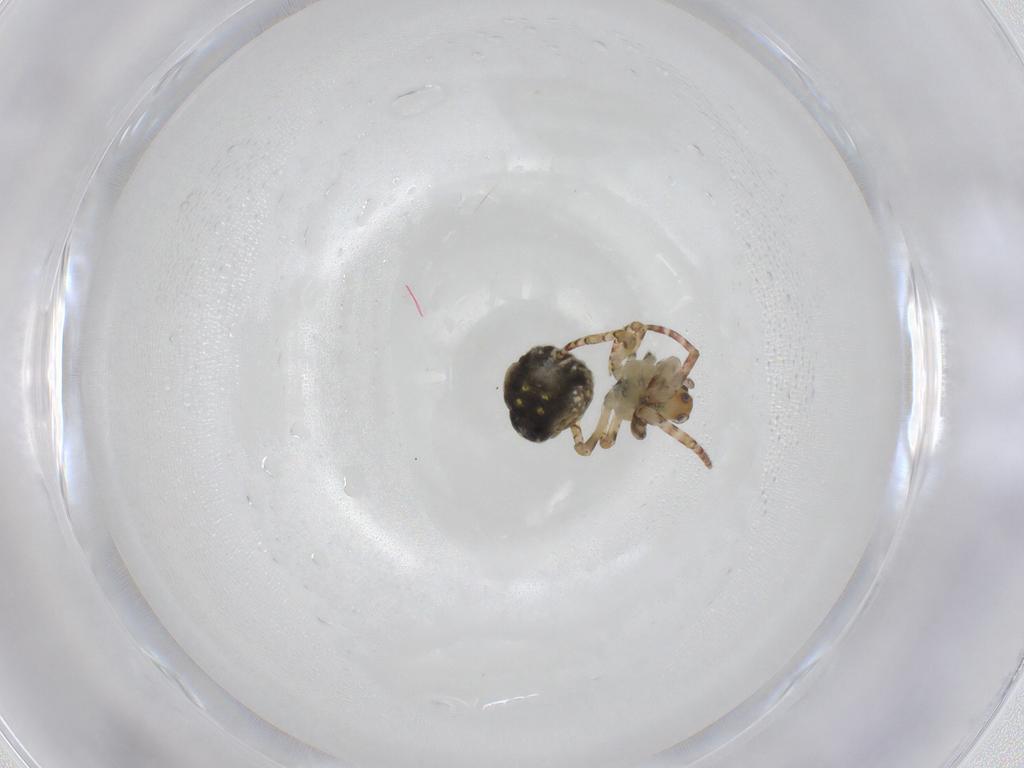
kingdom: Animalia
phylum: Arthropoda
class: Arachnida
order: Araneae
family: Araneidae
